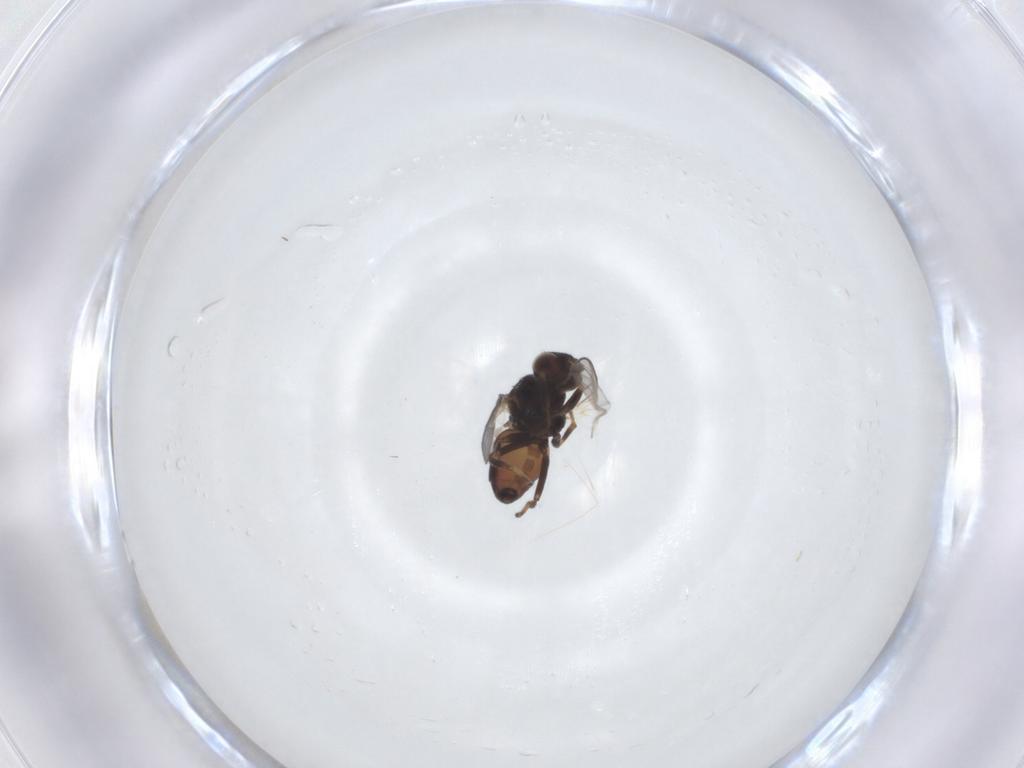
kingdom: Animalia
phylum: Arthropoda
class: Insecta
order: Diptera
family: Chloropidae
